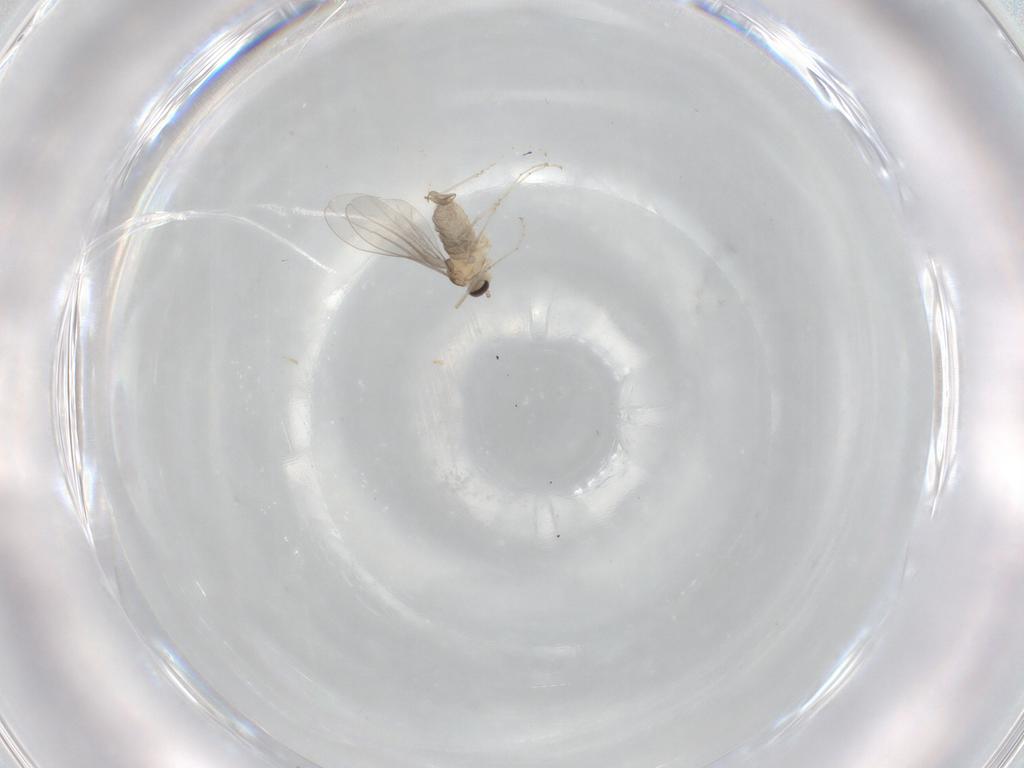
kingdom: Animalia
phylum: Arthropoda
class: Insecta
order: Diptera
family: Cecidomyiidae
